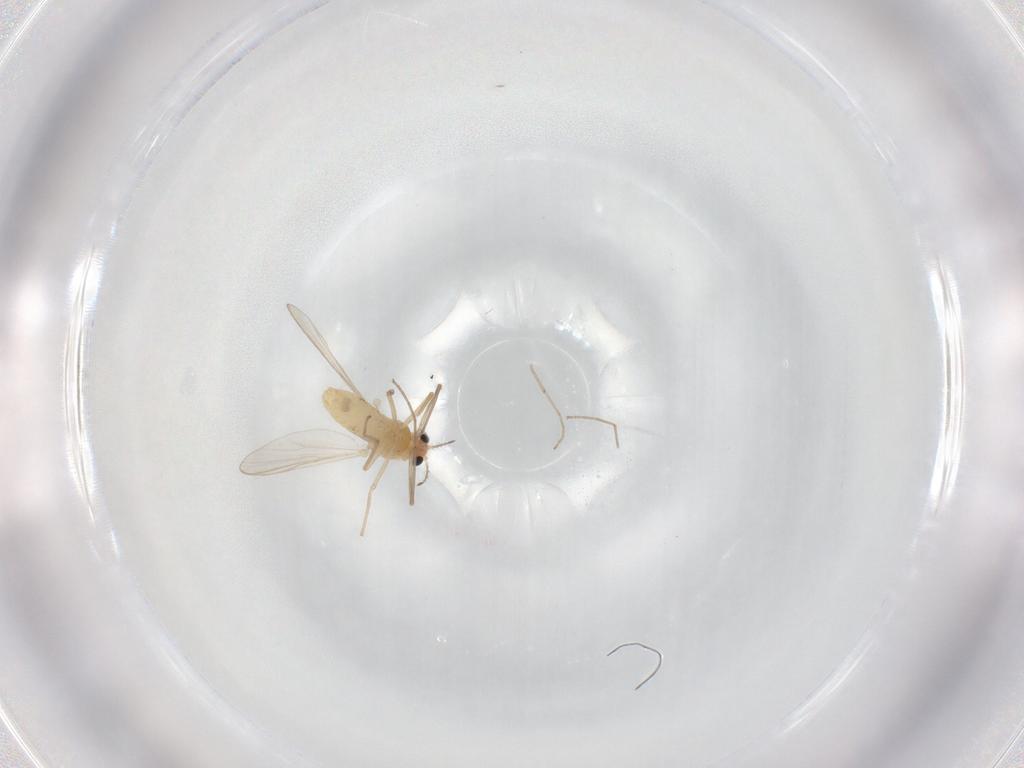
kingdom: Animalia
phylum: Arthropoda
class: Insecta
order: Diptera
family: Chironomidae
